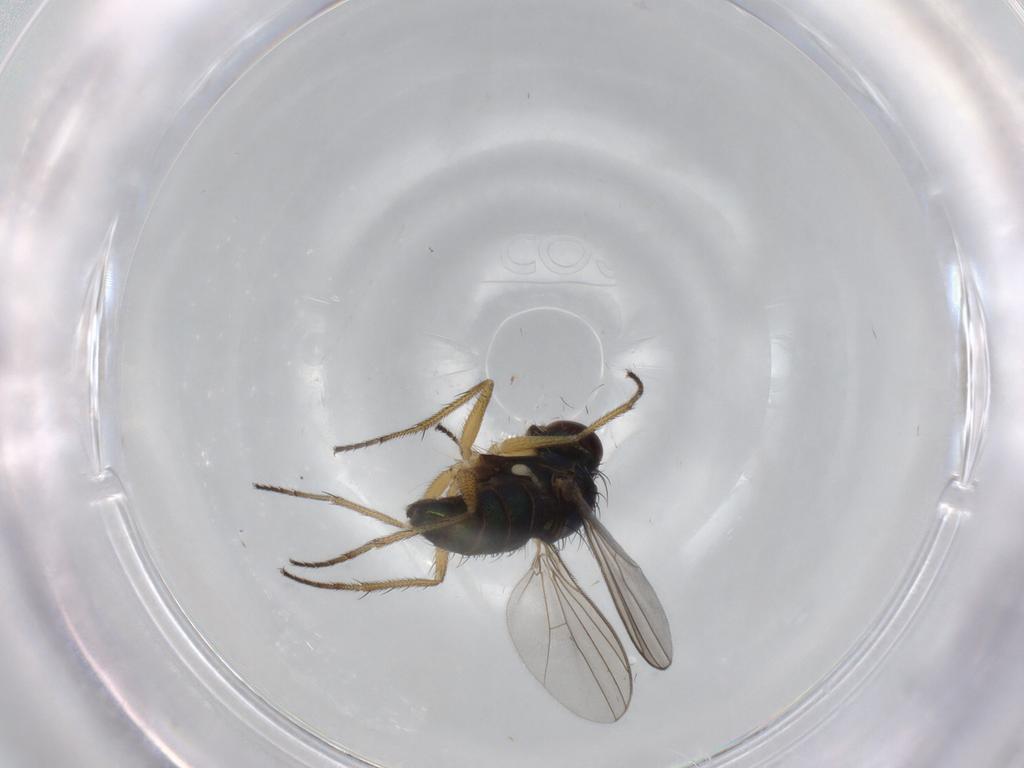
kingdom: Animalia
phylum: Arthropoda
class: Insecta
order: Diptera
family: Dolichopodidae
